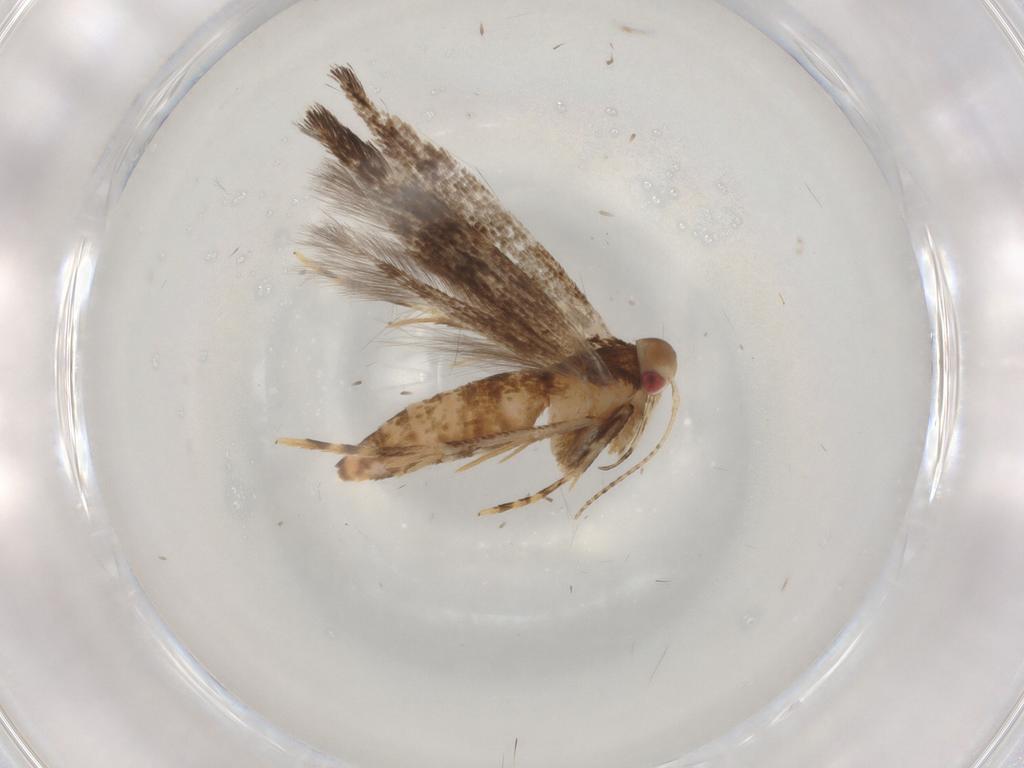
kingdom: Animalia
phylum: Arthropoda
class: Insecta
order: Lepidoptera
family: Cosmopterigidae
